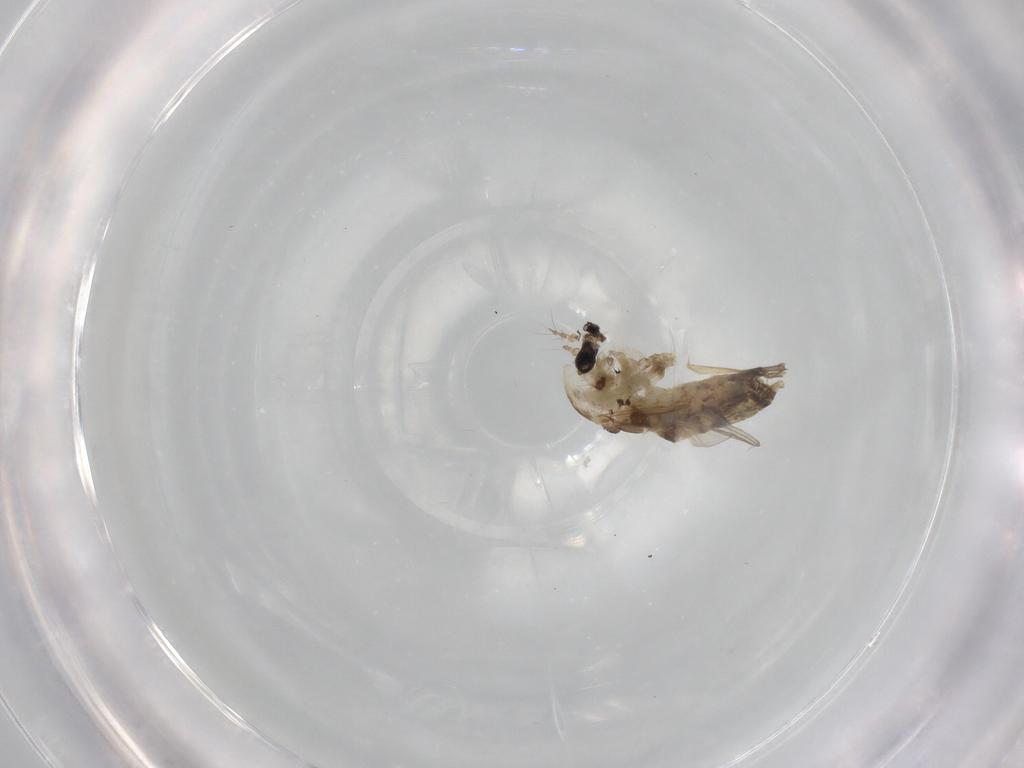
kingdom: Animalia
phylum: Arthropoda
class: Insecta
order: Diptera
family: Chironomidae
